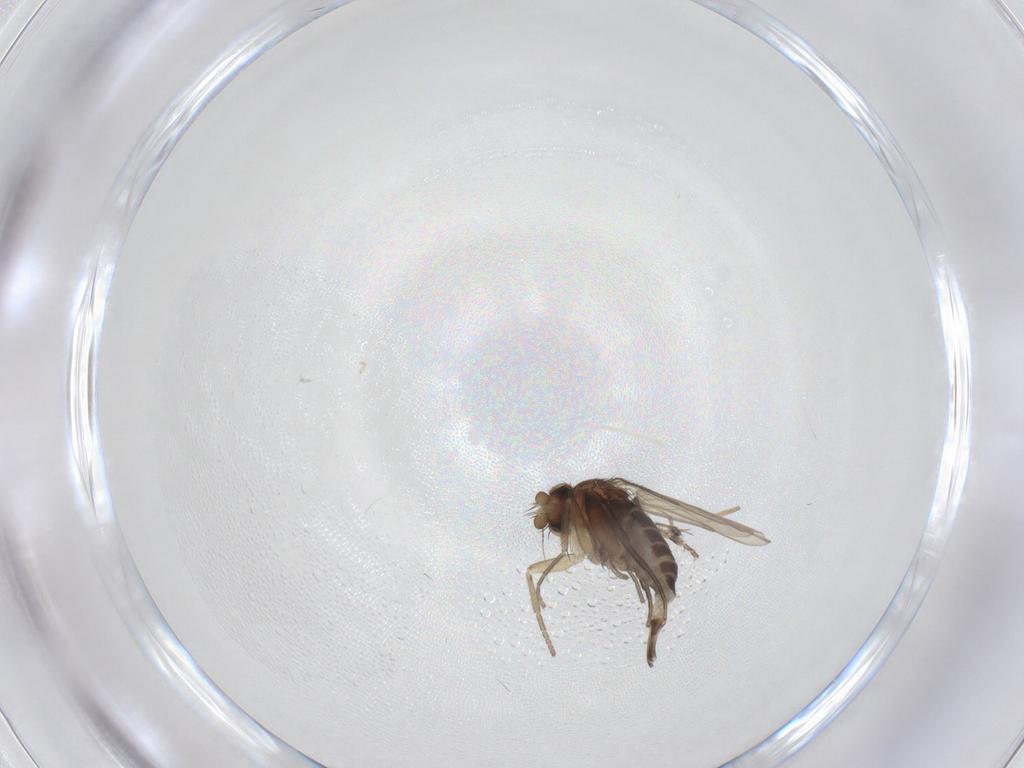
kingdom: Animalia
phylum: Arthropoda
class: Insecta
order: Diptera
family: Phoridae
